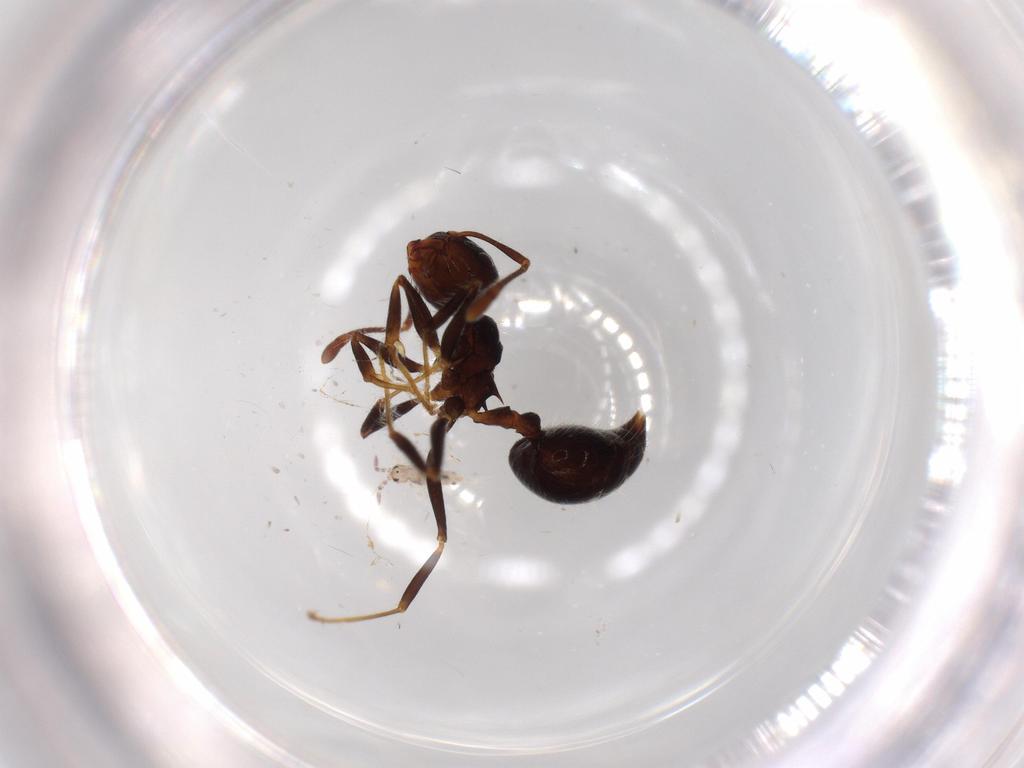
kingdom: Animalia
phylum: Arthropoda
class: Collembola
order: Entomobryomorpha
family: Entomobryidae
